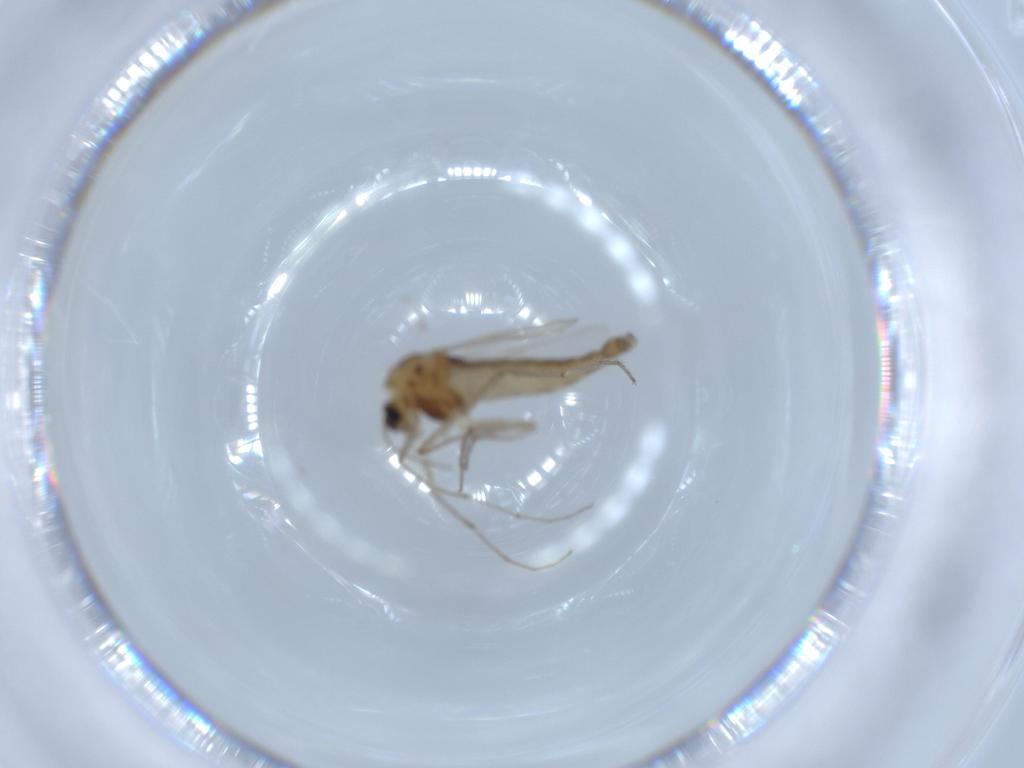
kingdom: Animalia
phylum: Arthropoda
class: Insecta
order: Diptera
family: Chironomidae
